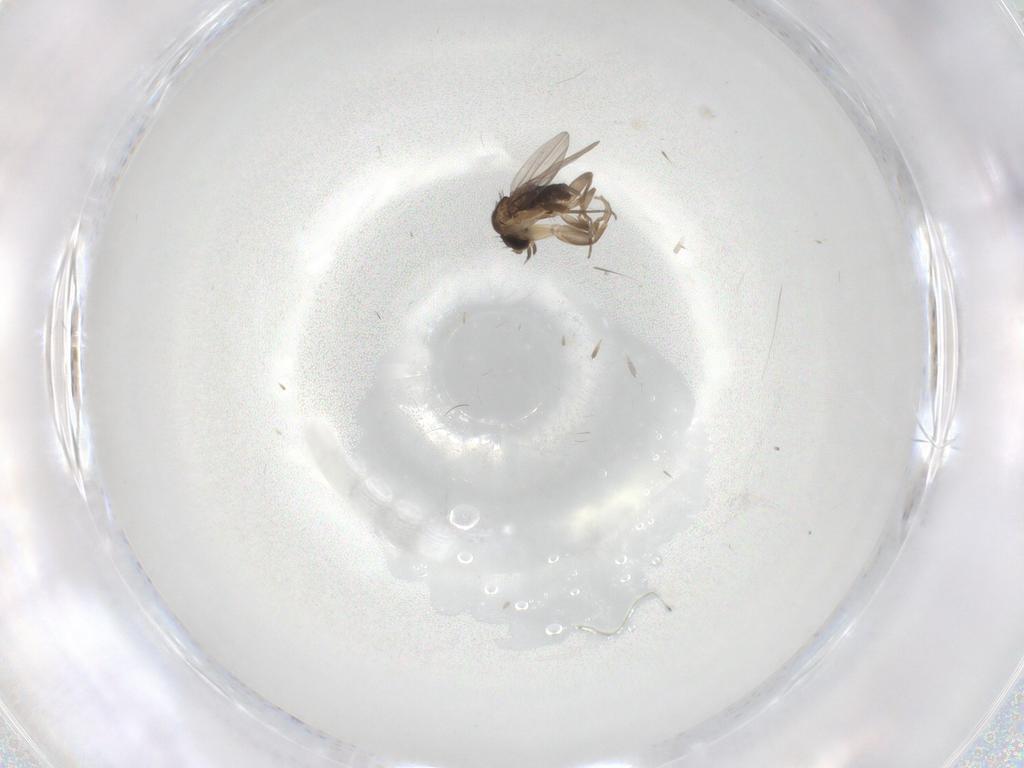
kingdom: Animalia
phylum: Arthropoda
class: Insecta
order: Diptera
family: Phoridae
